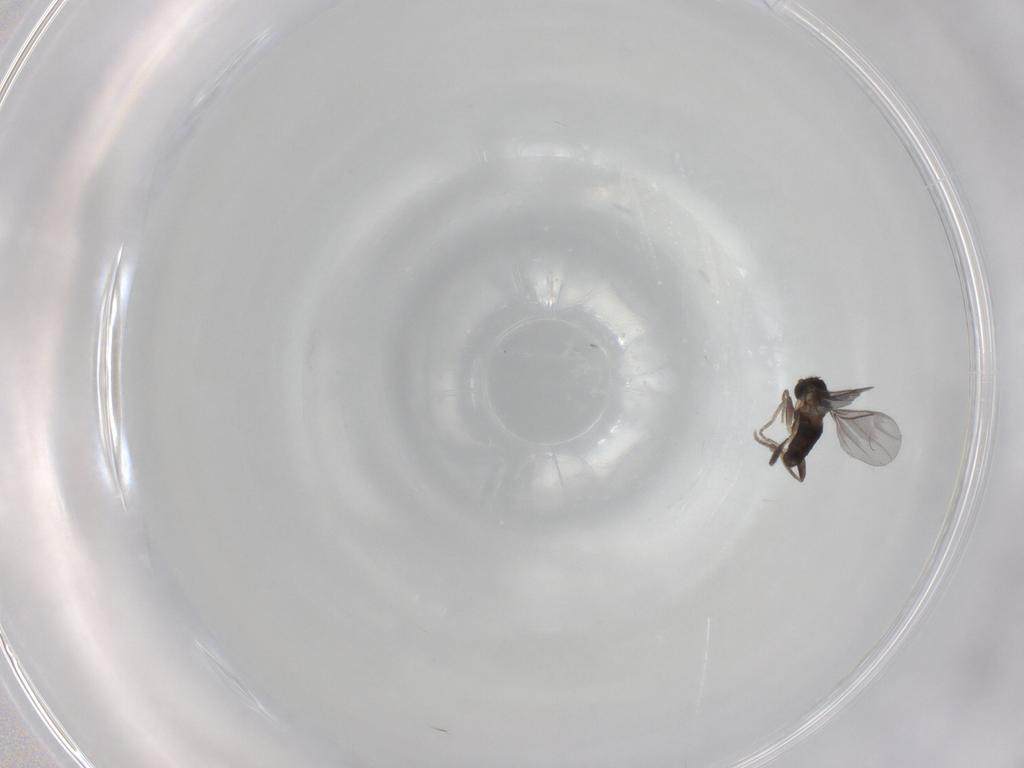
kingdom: Animalia
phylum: Arthropoda
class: Insecta
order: Diptera
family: Phoridae
